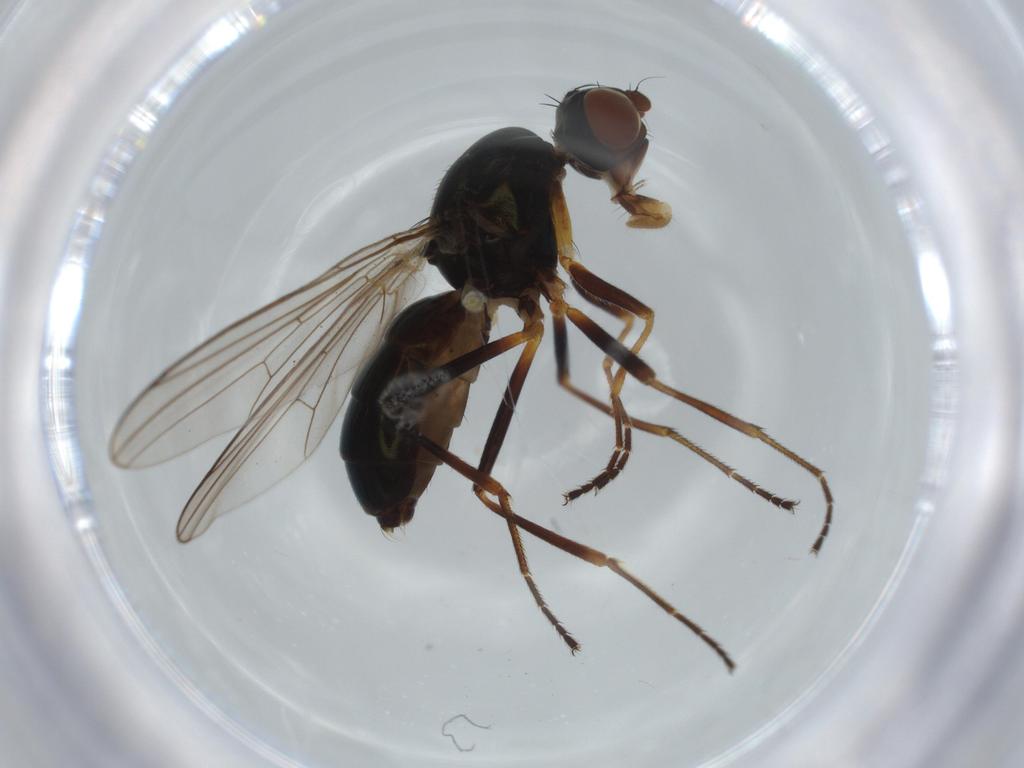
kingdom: Animalia
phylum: Arthropoda
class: Insecta
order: Diptera
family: Sepsidae
